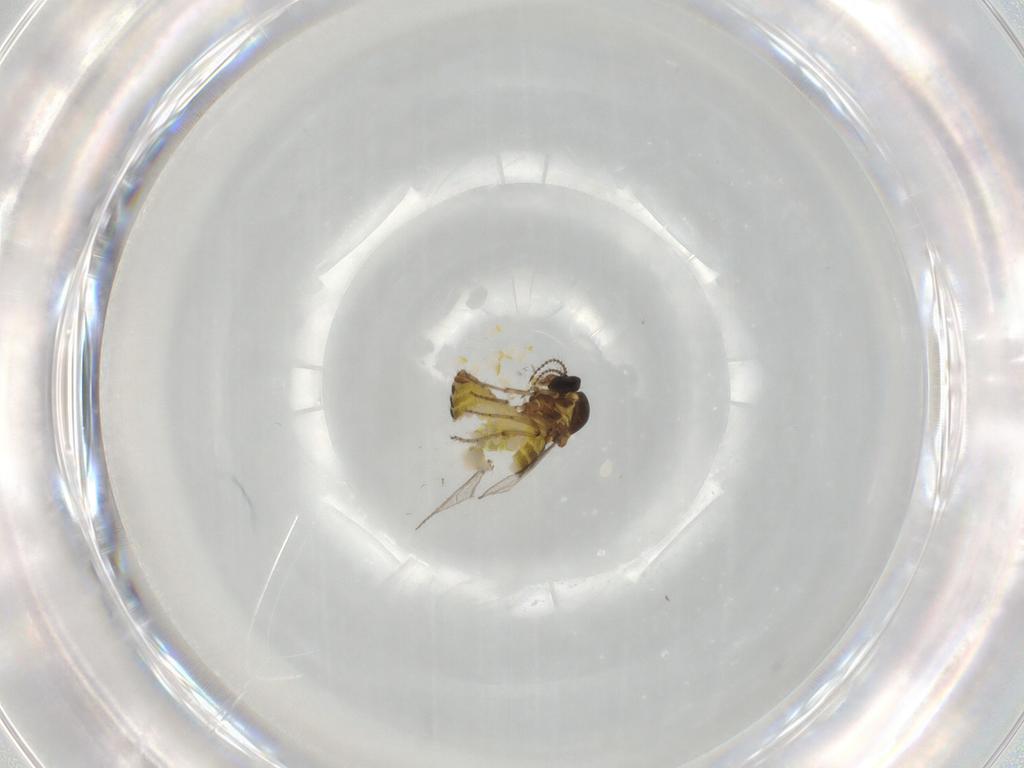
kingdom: Animalia
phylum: Arthropoda
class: Insecta
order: Diptera
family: Ceratopogonidae
